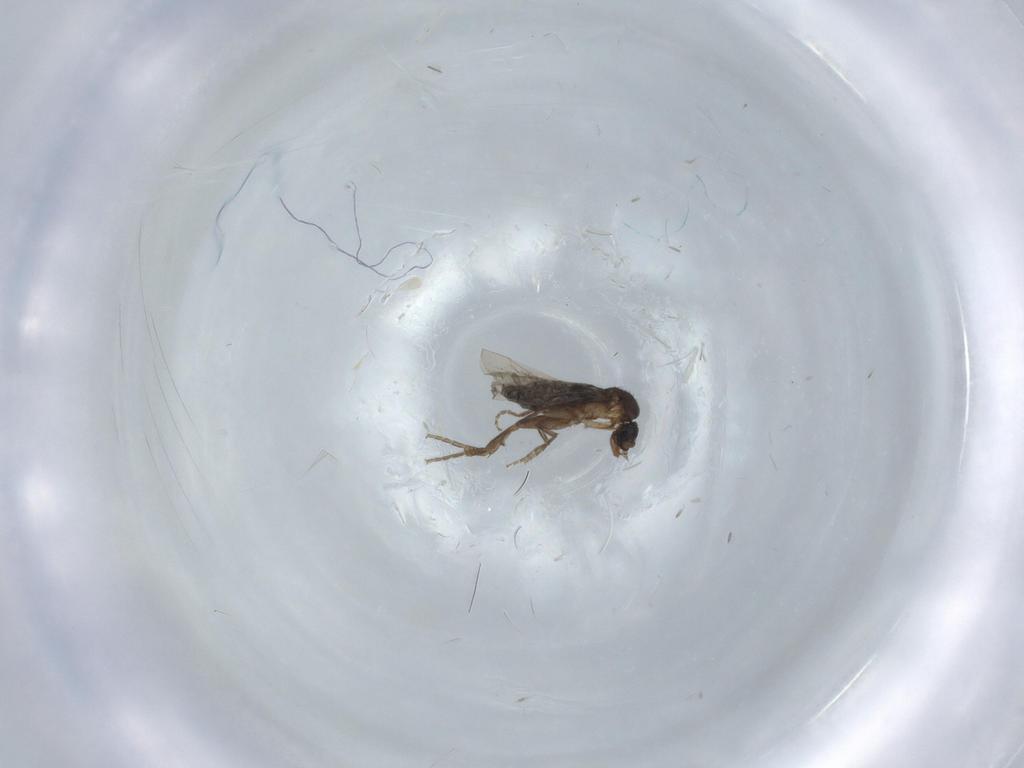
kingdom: Animalia
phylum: Arthropoda
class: Insecta
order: Diptera
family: Phoridae
